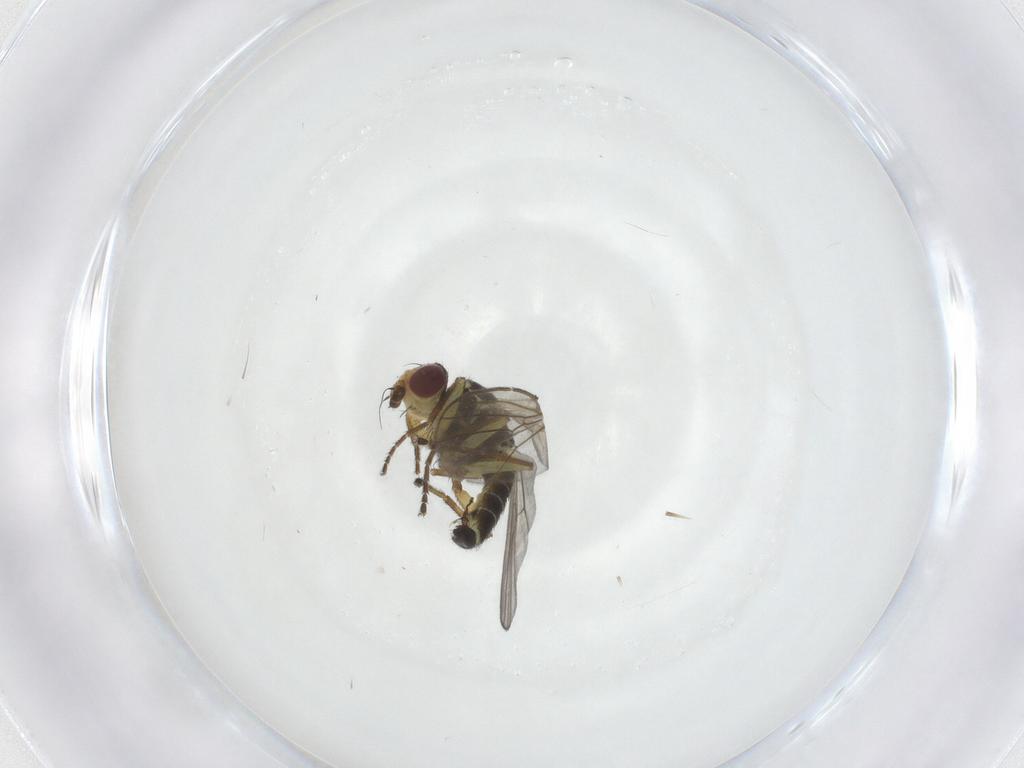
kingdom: Animalia
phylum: Arthropoda
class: Insecta
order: Diptera
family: Agromyzidae
